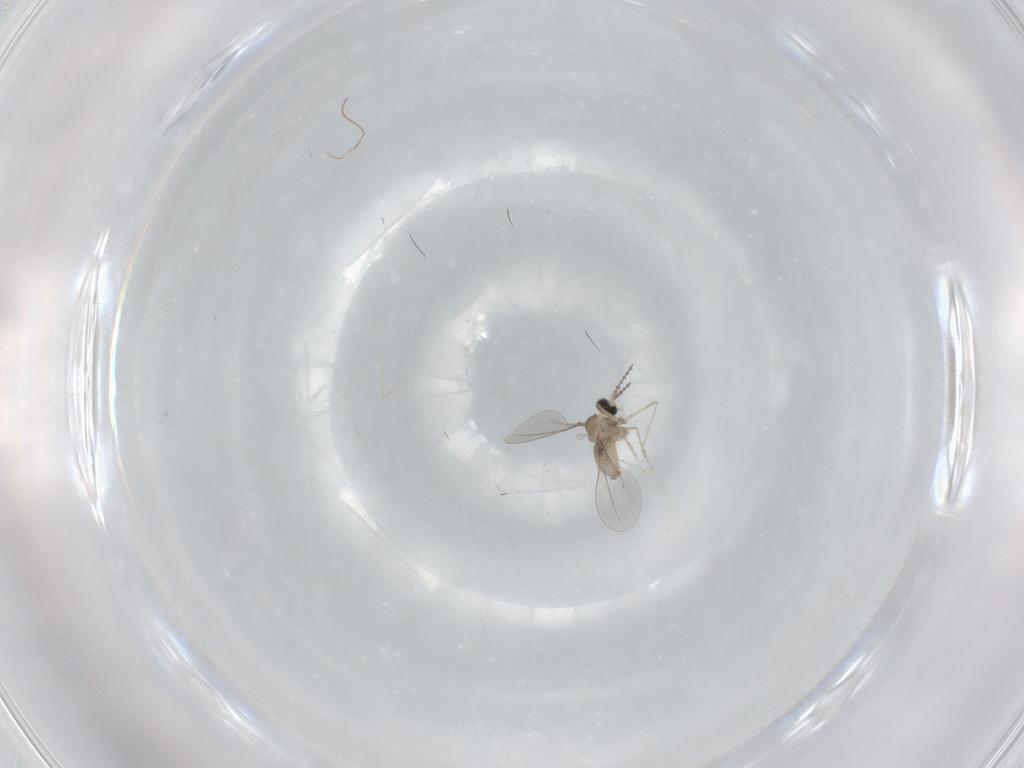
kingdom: Animalia
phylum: Arthropoda
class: Insecta
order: Diptera
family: Cecidomyiidae
